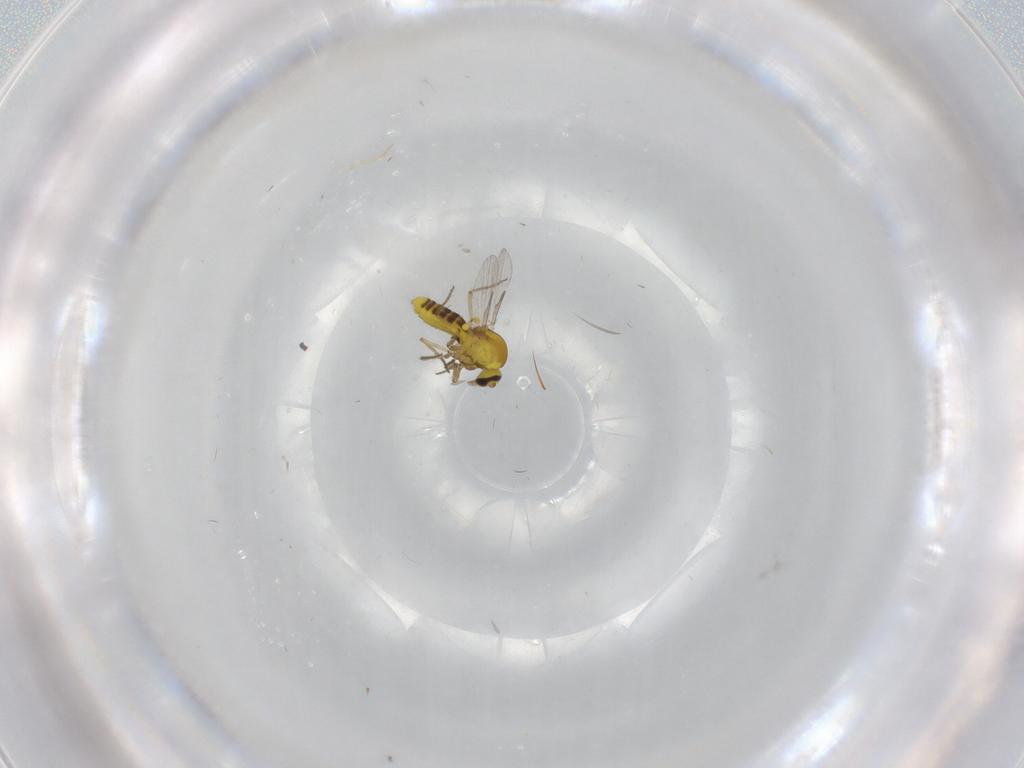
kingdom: Animalia
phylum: Arthropoda
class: Insecta
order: Diptera
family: Ceratopogonidae
